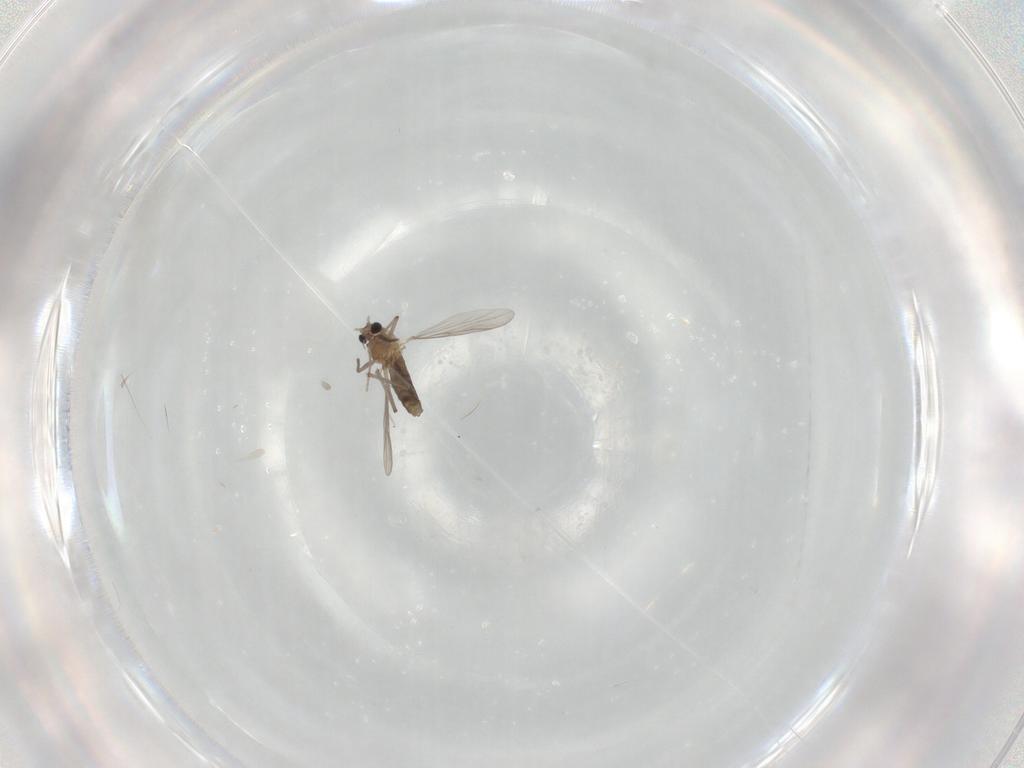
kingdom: Animalia
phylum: Arthropoda
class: Insecta
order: Diptera
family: Chironomidae
